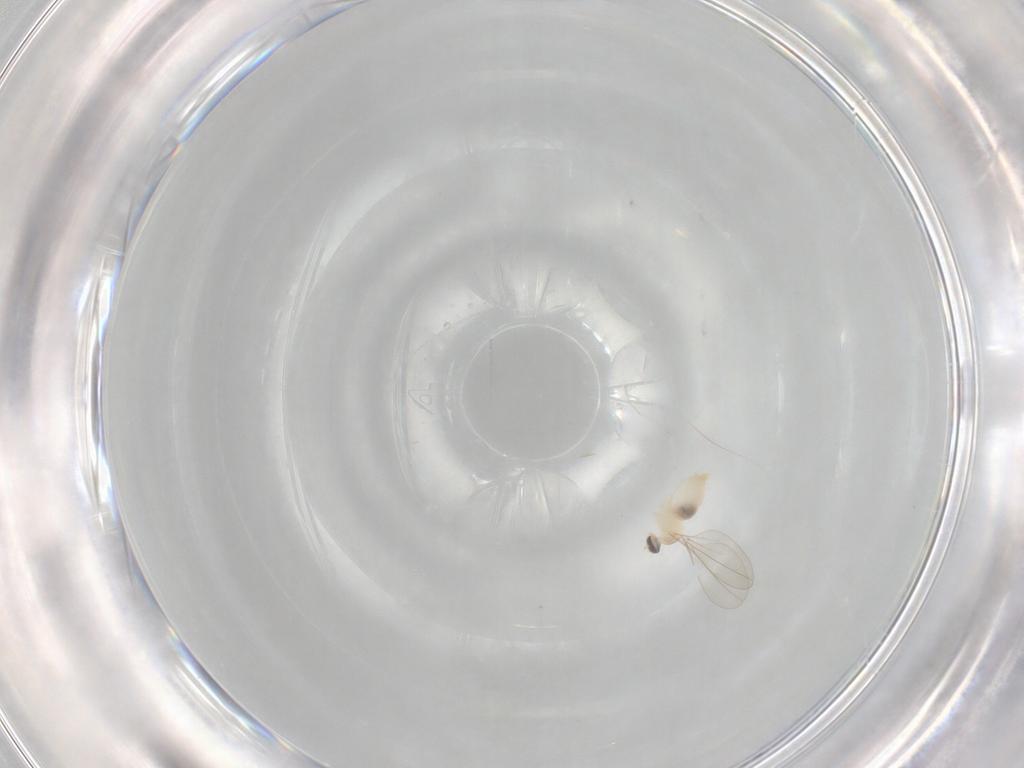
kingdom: Animalia
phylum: Arthropoda
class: Insecta
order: Diptera
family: Cecidomyiidae
